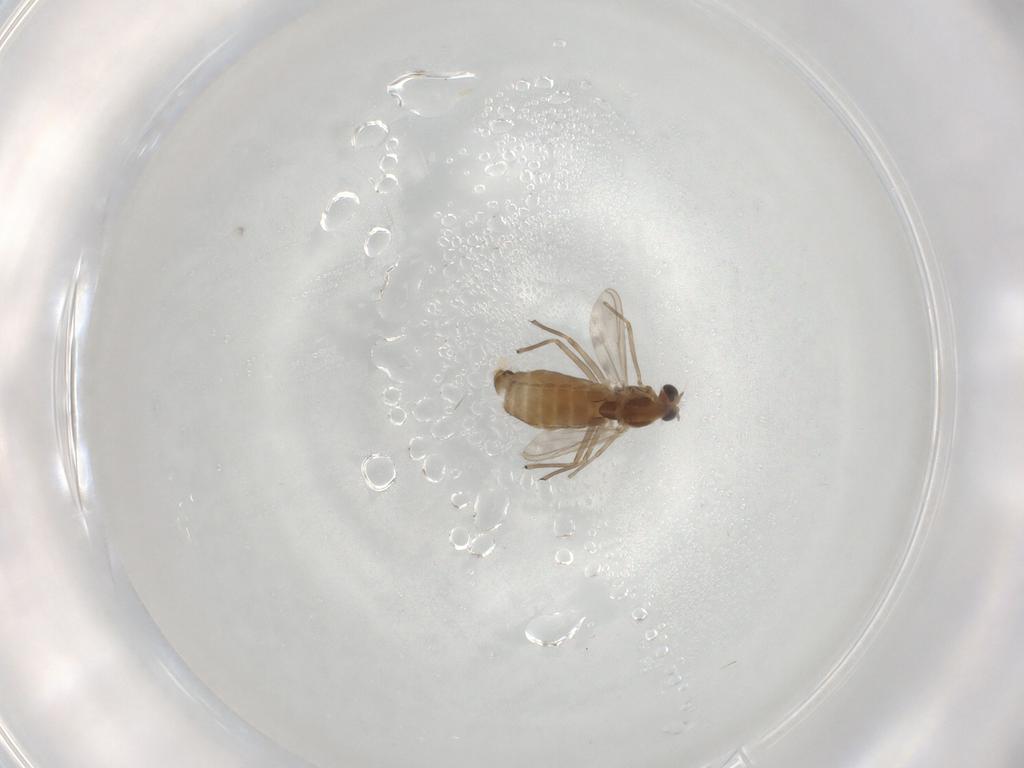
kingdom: Animalia
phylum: Arthropoda
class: Insecta
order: Diptera
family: Chironomidae
